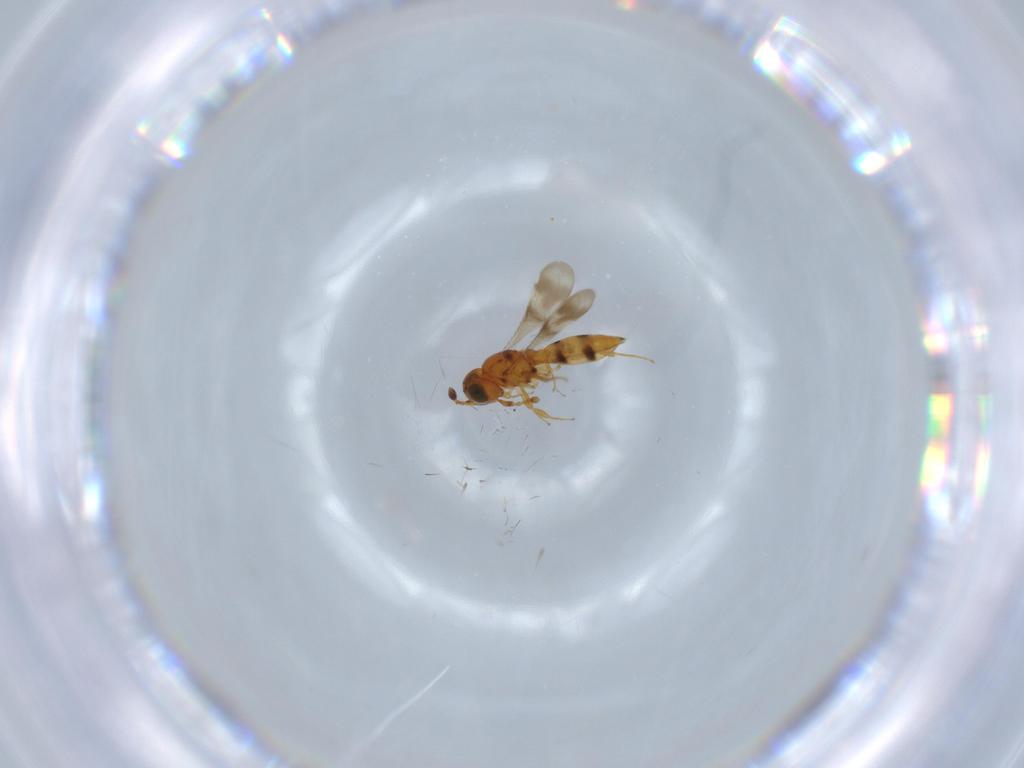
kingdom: Animalia
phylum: Arthropoda
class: Insecta
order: Hymenoptera
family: Scelionidae
